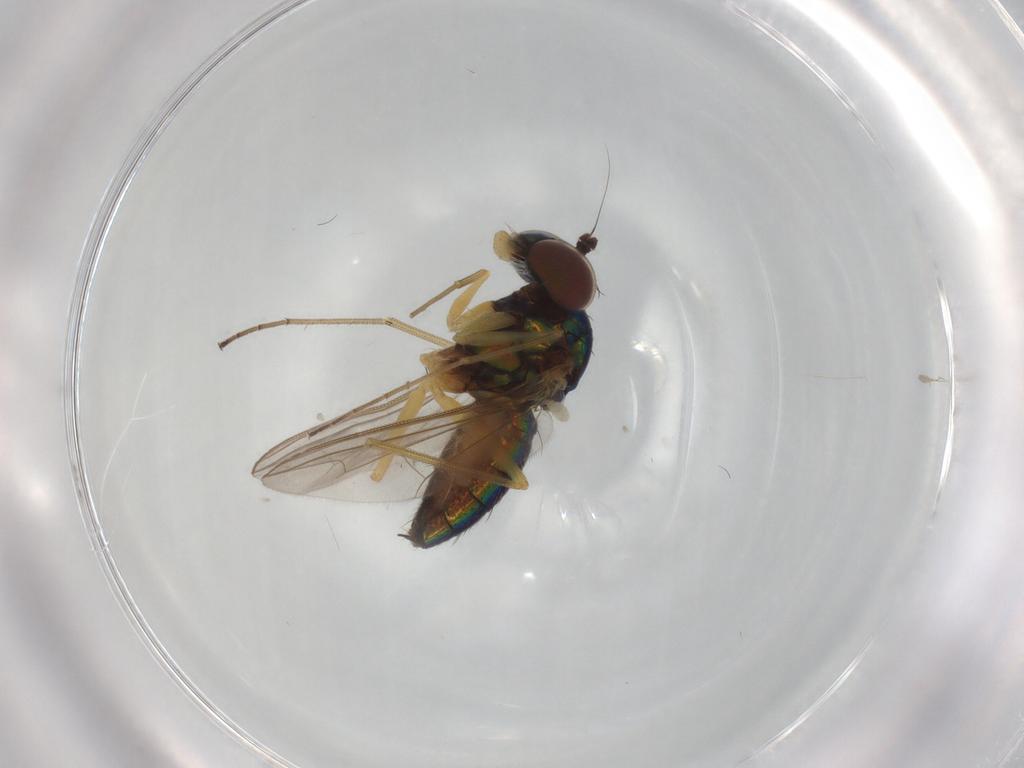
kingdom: Animalia
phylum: Arthropoda
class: Insecta
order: Diptera
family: Dolichopodidae
